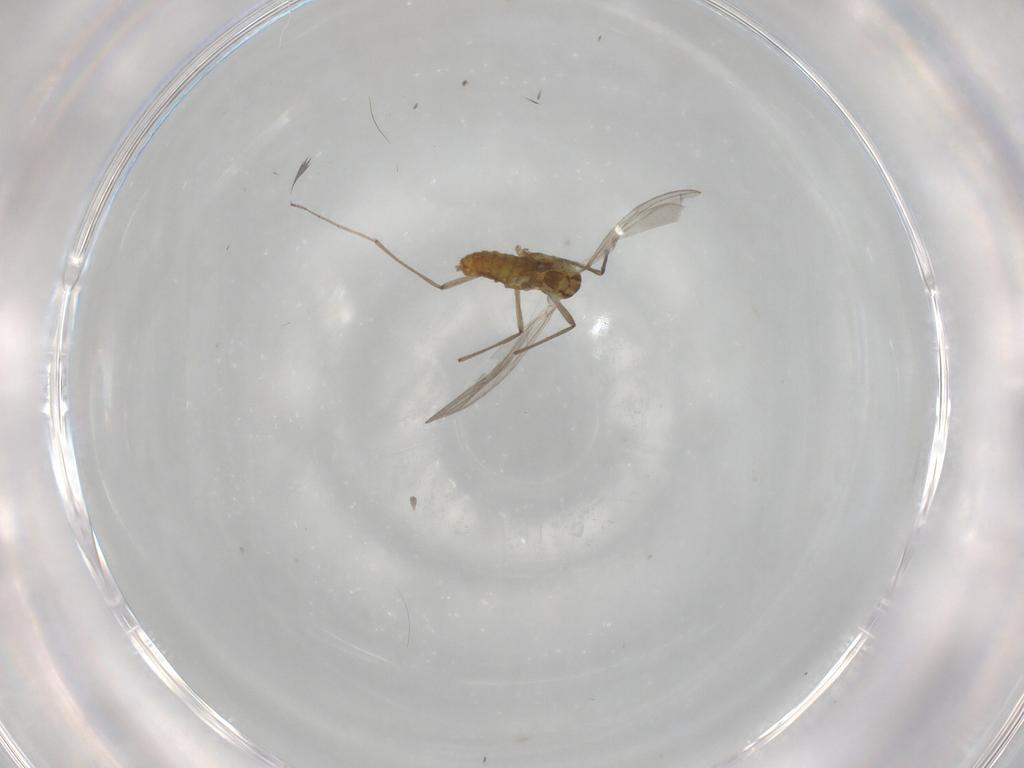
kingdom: Animalia
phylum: Arthropoda
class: Insecta
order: Diptera
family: Chironomidae
